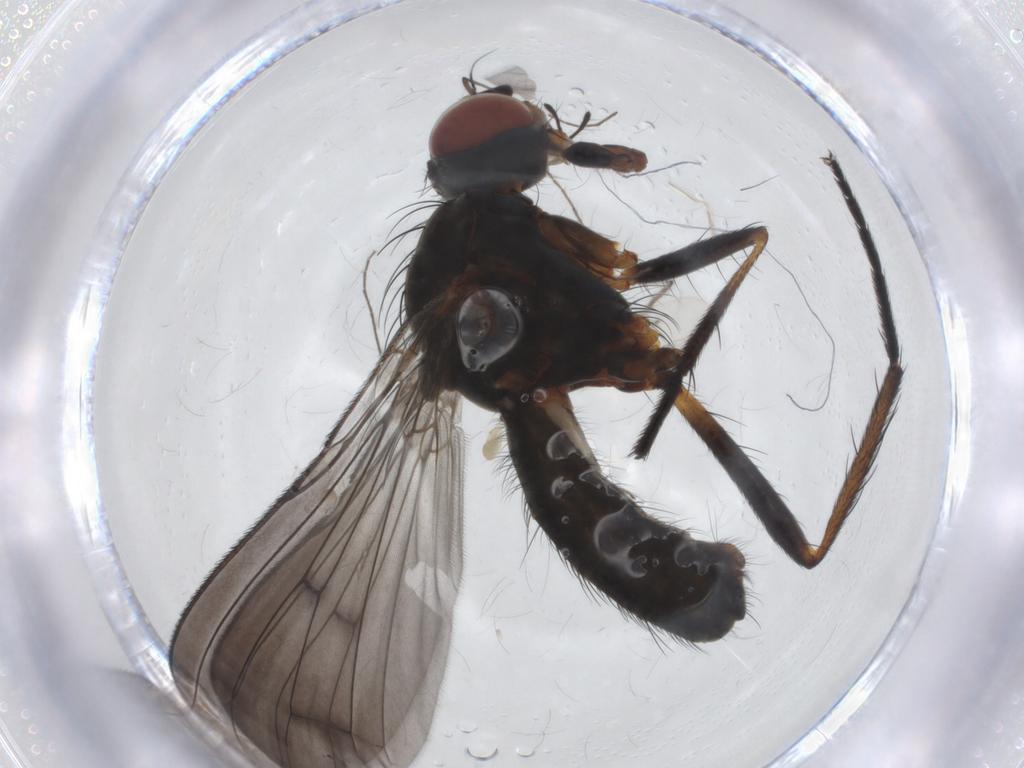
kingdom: Animalia
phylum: Arthropoda
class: Insecta
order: Diptera
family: Anthomyiidae
